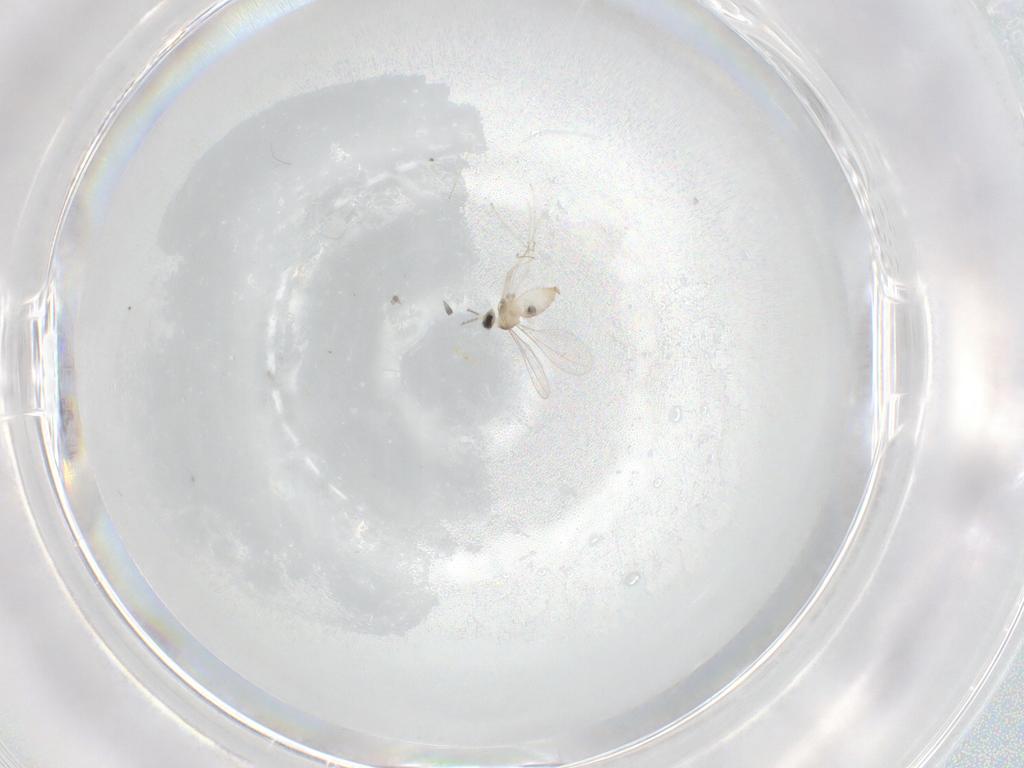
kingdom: Animalia
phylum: Arthropoda
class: Insecta
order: Diptera
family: Cecidomyiidae
